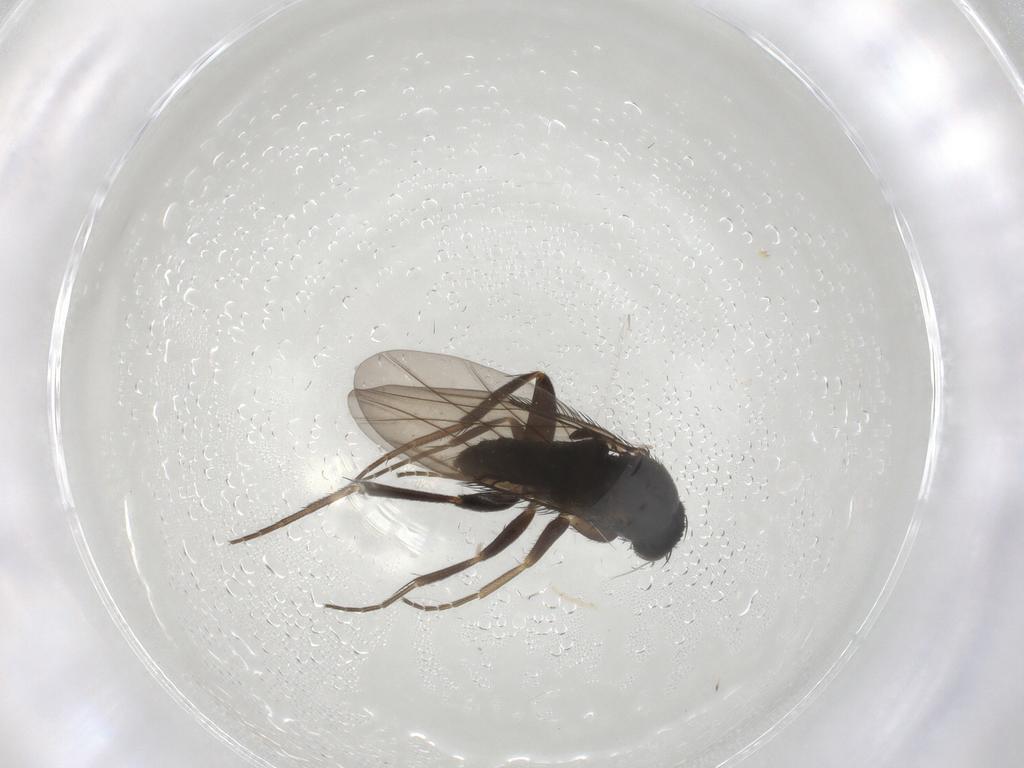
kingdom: Animalia
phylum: Arthropoda
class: Insecta
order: Diptera
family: Phoridae
